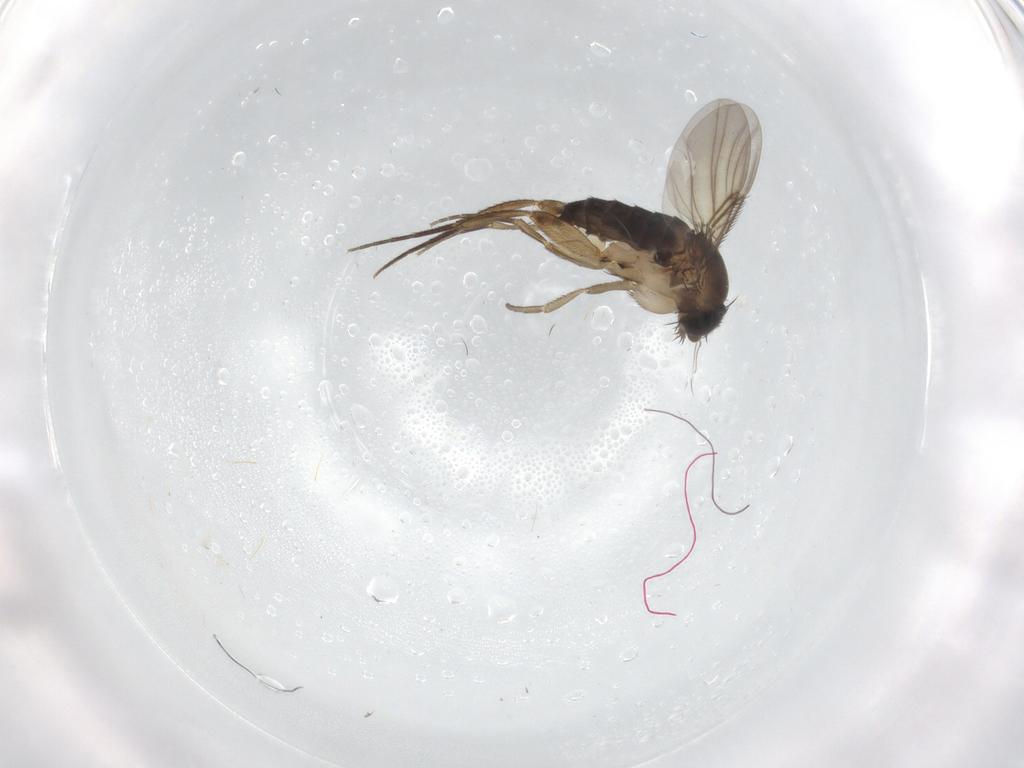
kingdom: Animalia
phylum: Arthropoda
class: Insecta
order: Diptera
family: Phoridae
